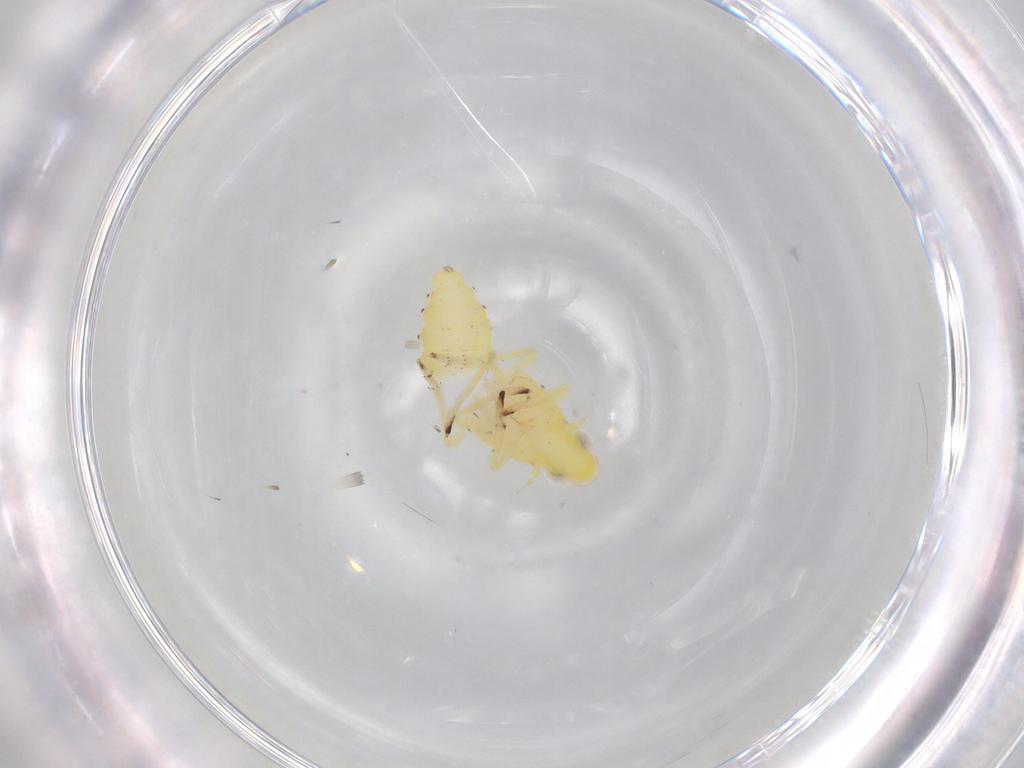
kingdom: Animalia
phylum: Arthropoda
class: Insecta
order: Hemiptera
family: Tropiduchidae
